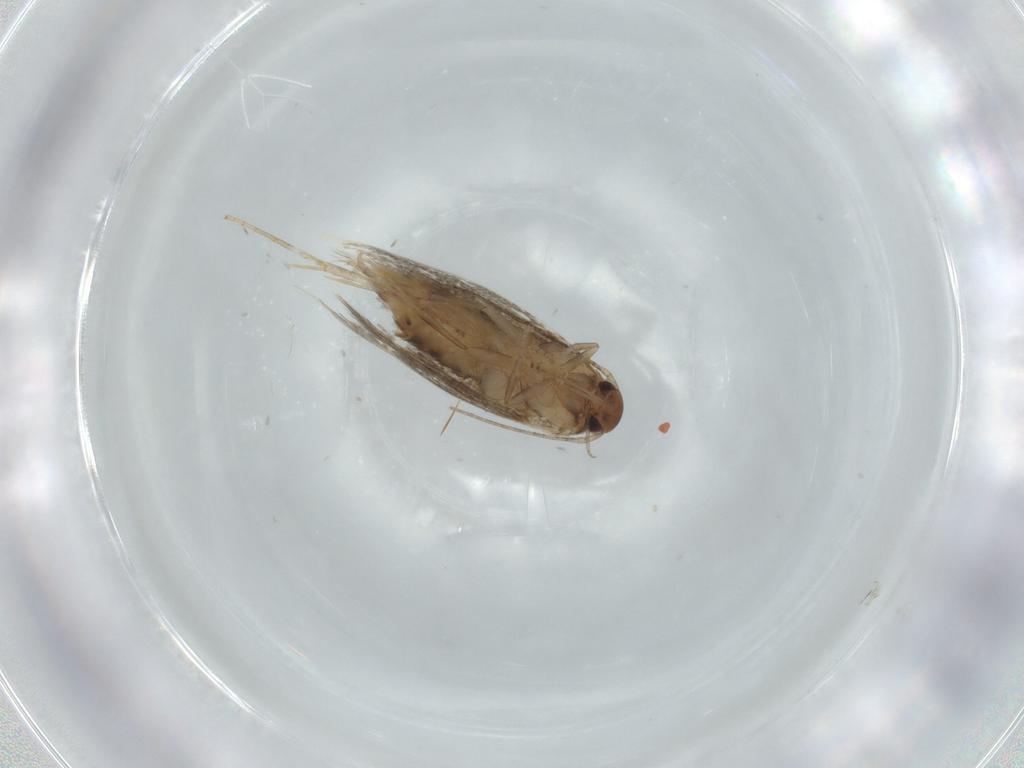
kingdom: Animalia
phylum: Arthropoda
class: Insecta
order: Lepidoptera
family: Elachistidae
